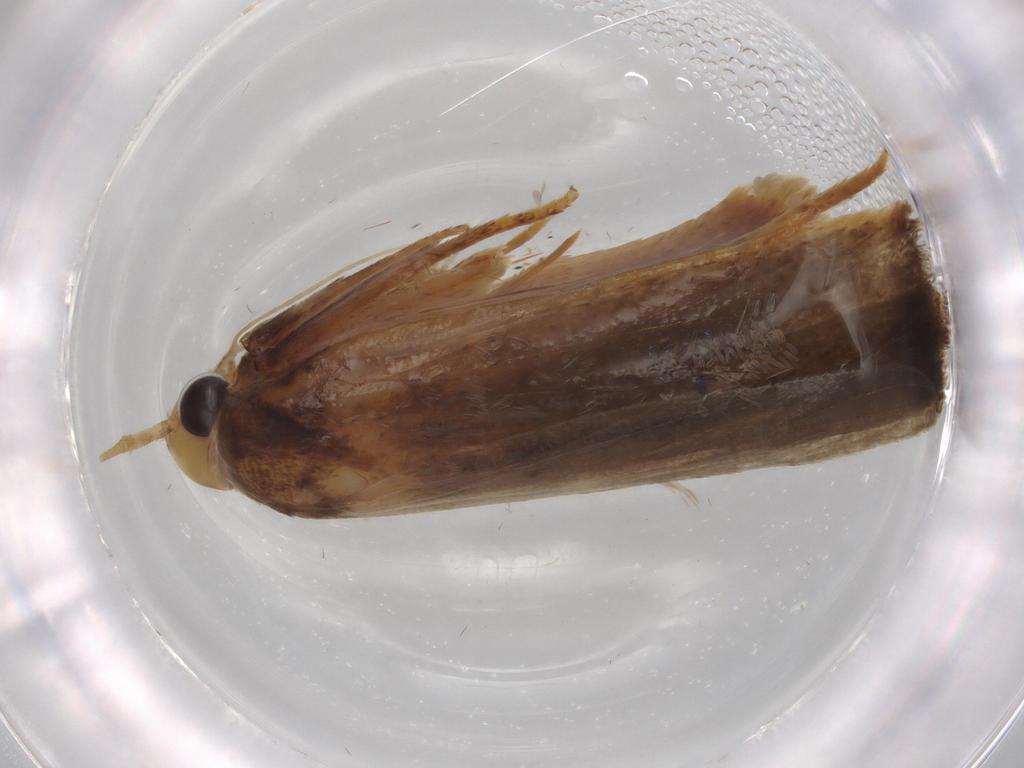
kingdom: Animalia
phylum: Arthropoda
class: Insecta
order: Lepidoptera
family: Autostichidae
